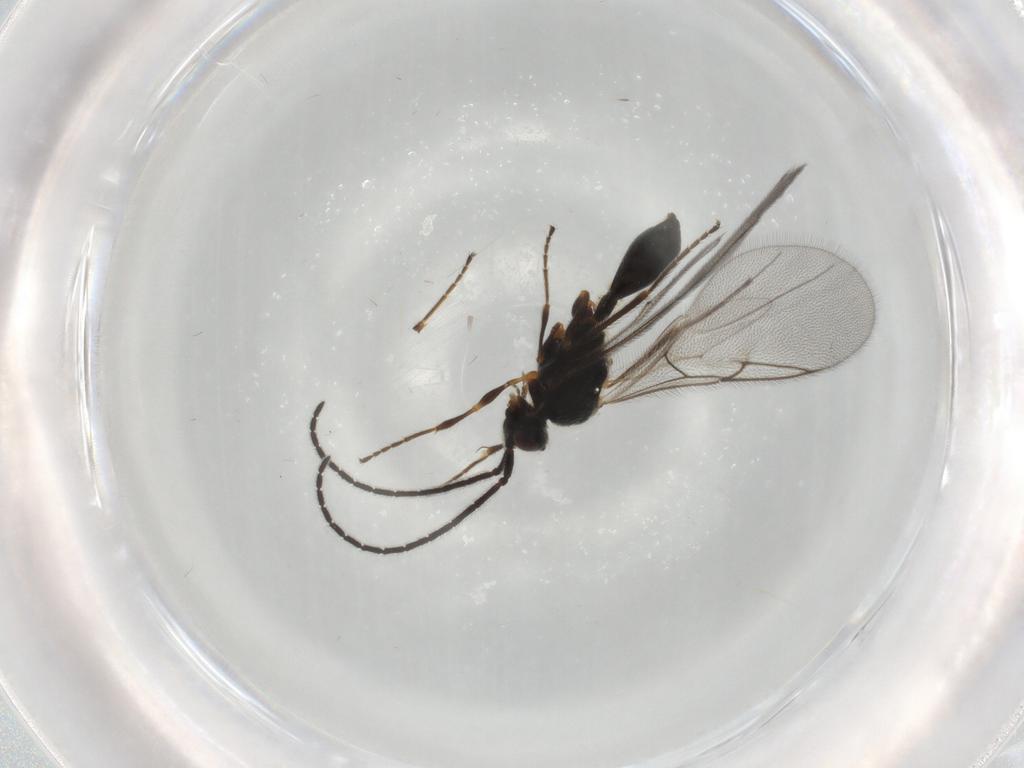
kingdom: Animalia
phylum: Arthropoda
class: Insecta
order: Hymenoptera
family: Diapriidae
